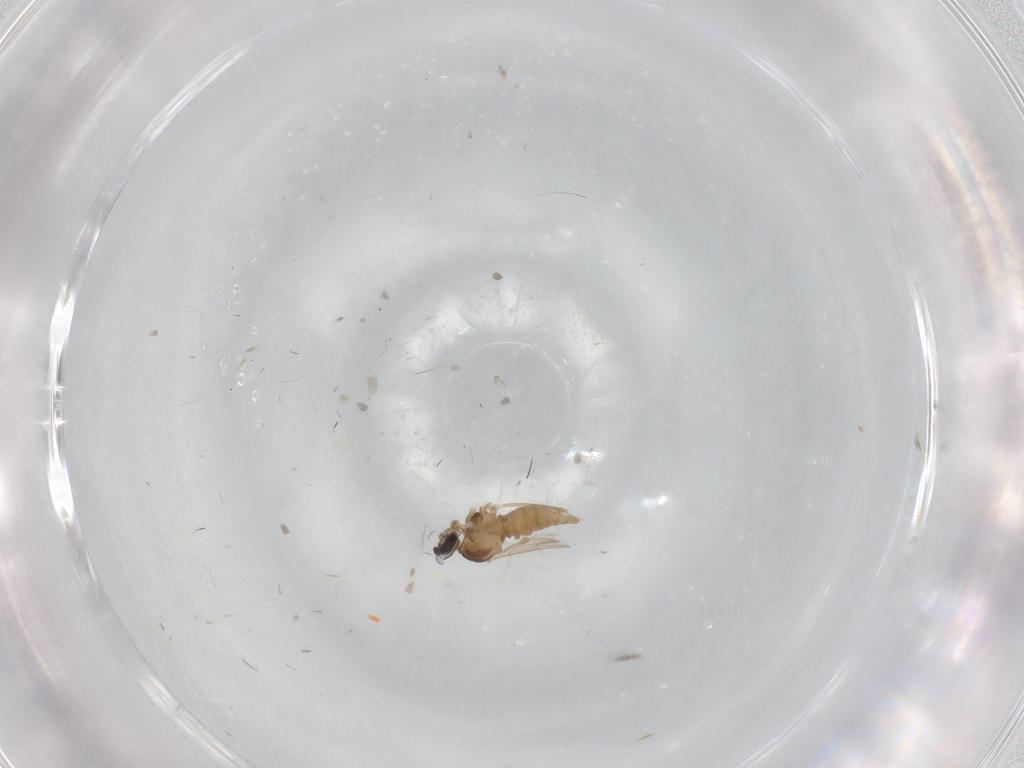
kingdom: Animalia
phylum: Arthropoda
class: Insecta
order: Diptera
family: Cecidomyiidae
